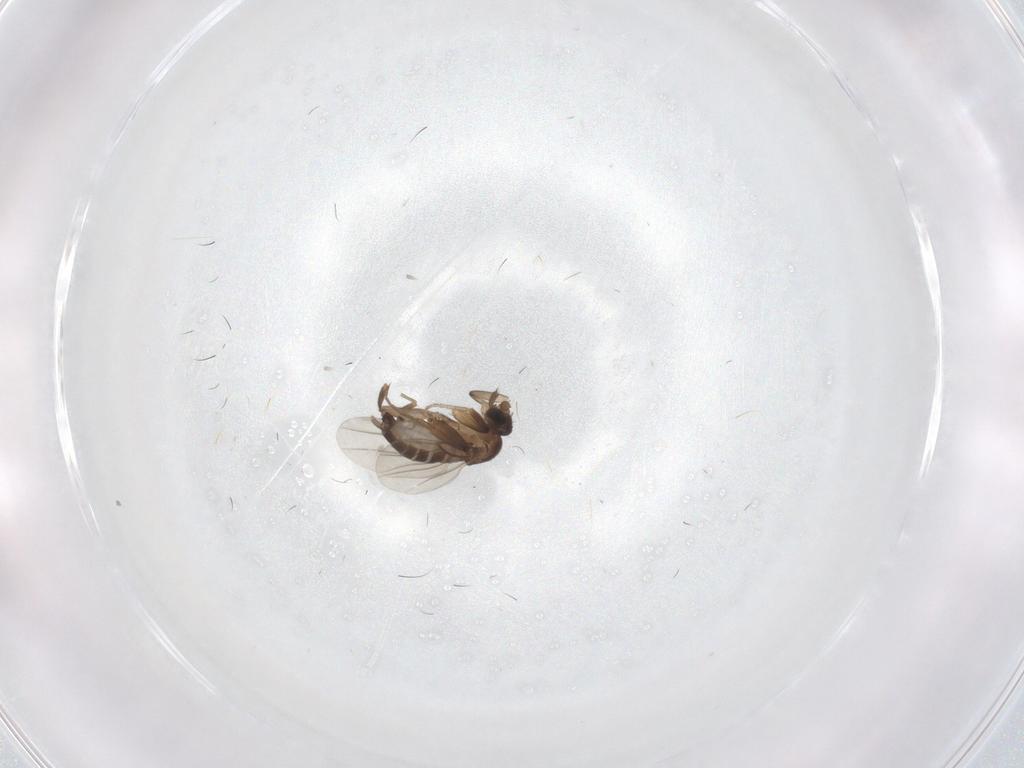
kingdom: Animalia
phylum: Arthropoda
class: Insecta
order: Diptera
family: Phoridae
